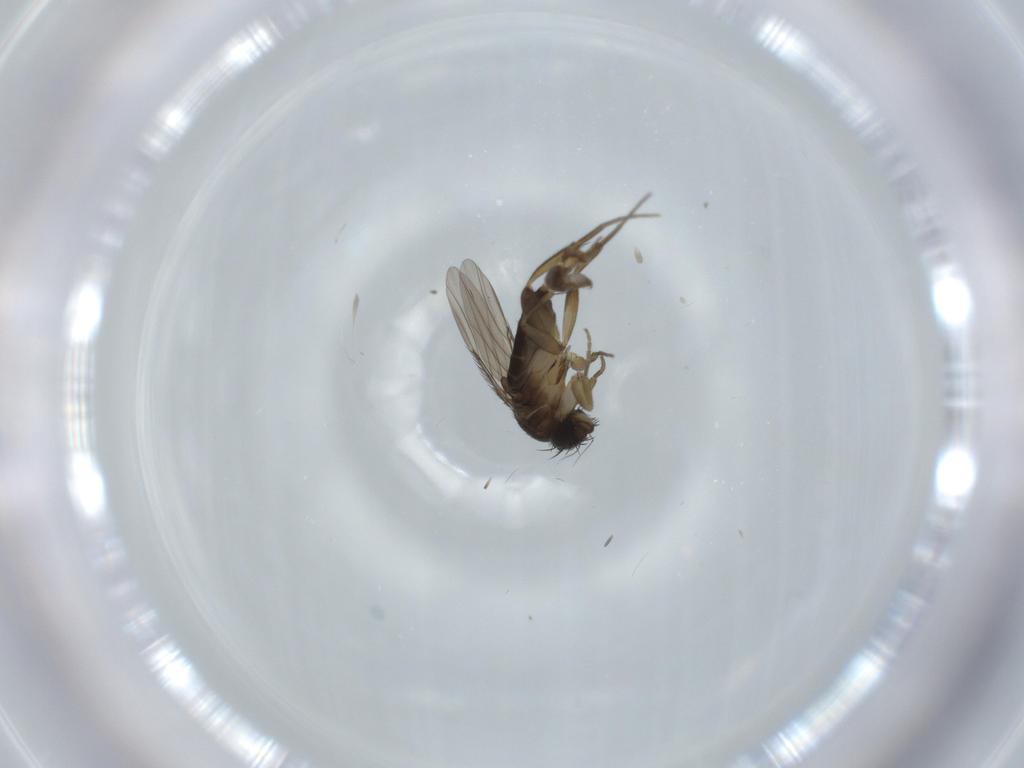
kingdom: Animalia
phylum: Arthropoda
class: Insecta
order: Diptera
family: Phoridae
